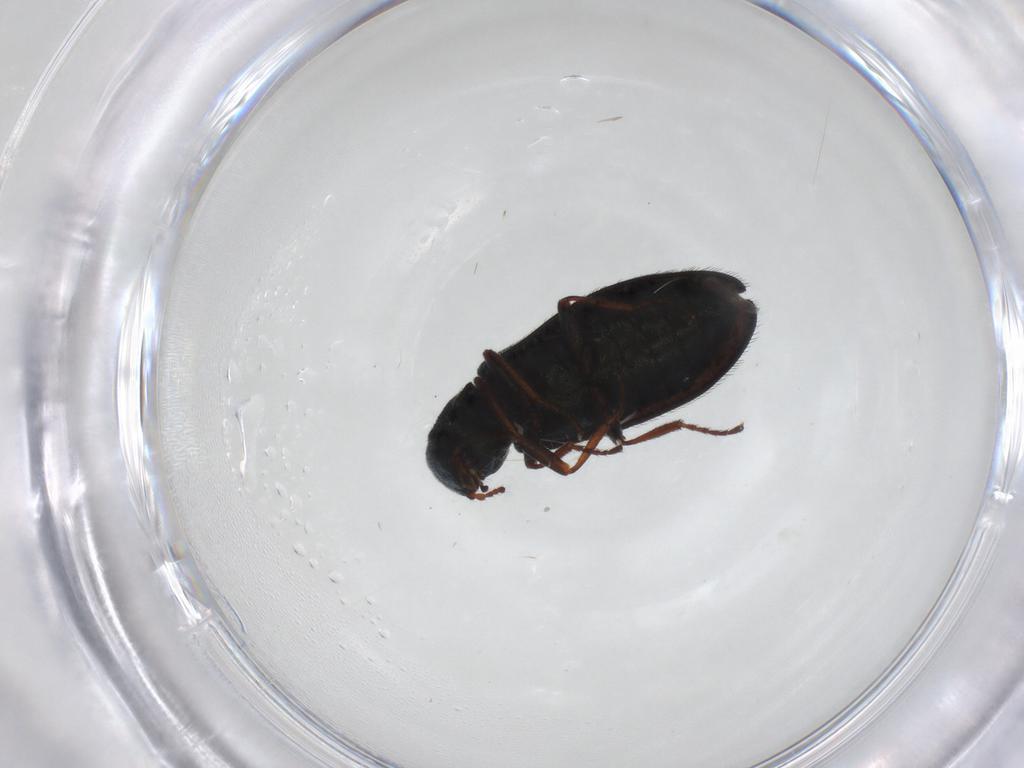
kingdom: Animalia
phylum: Arthropoda
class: Insecta
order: Coleoptera
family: Melyridae
